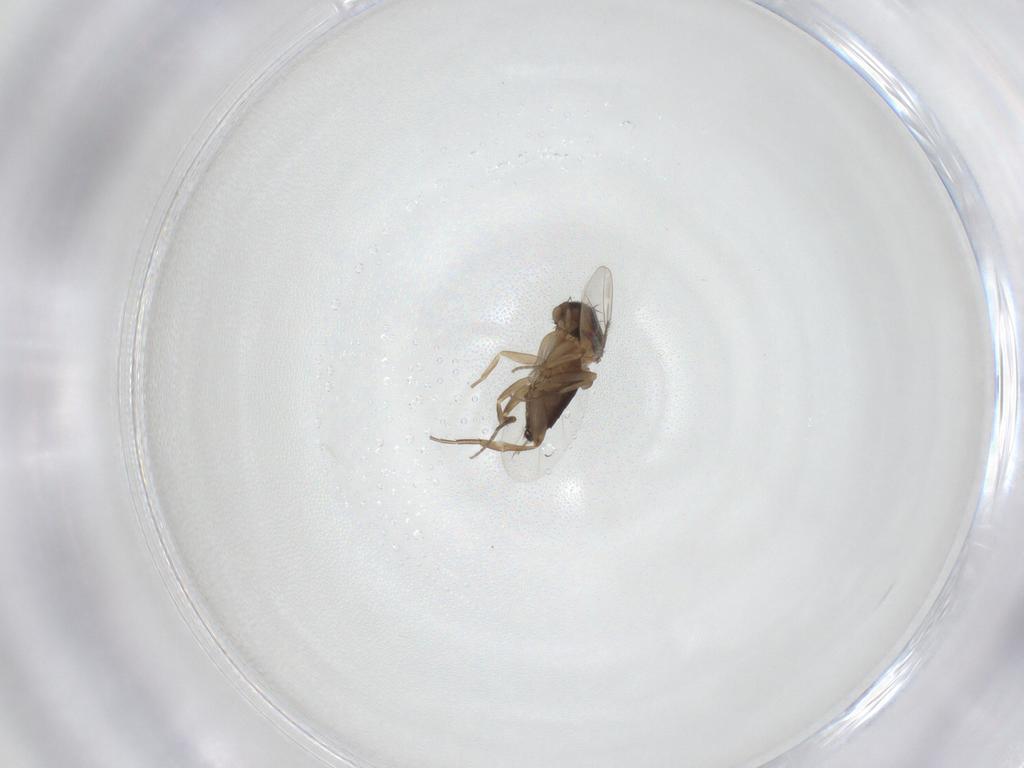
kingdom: Animalia
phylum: Arthropoda
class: Insecta
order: Diptera
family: Phoridae
